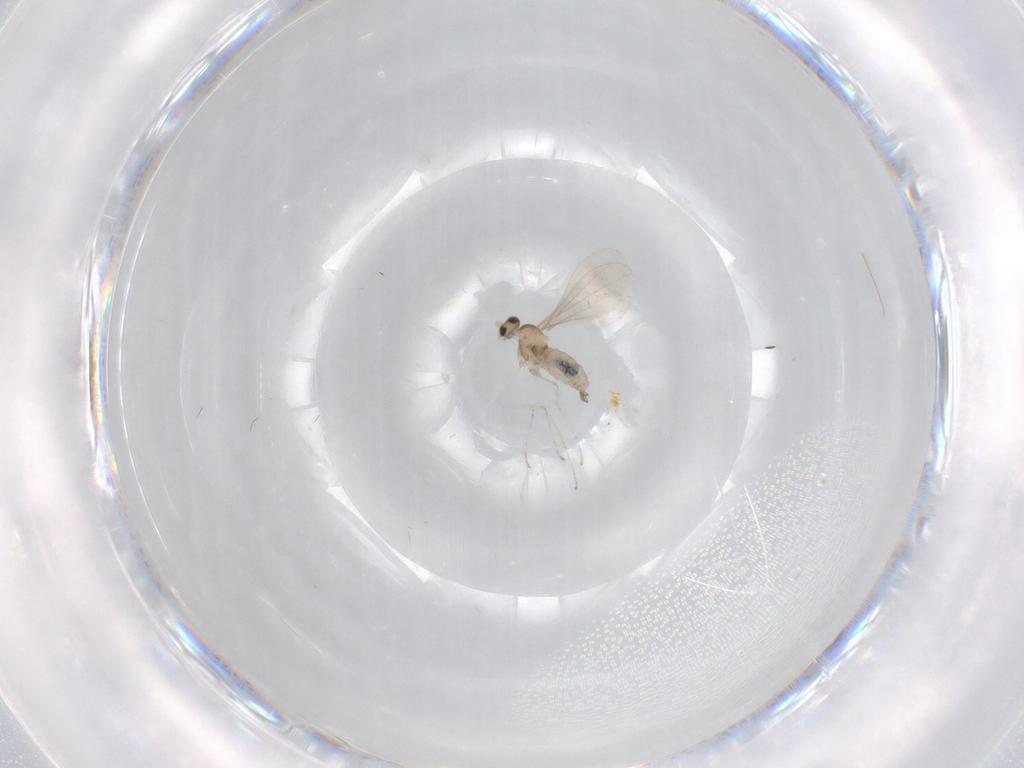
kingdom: Animalia
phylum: Arthropoda
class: Insecta
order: Diptera
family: Cecidomyiidae
